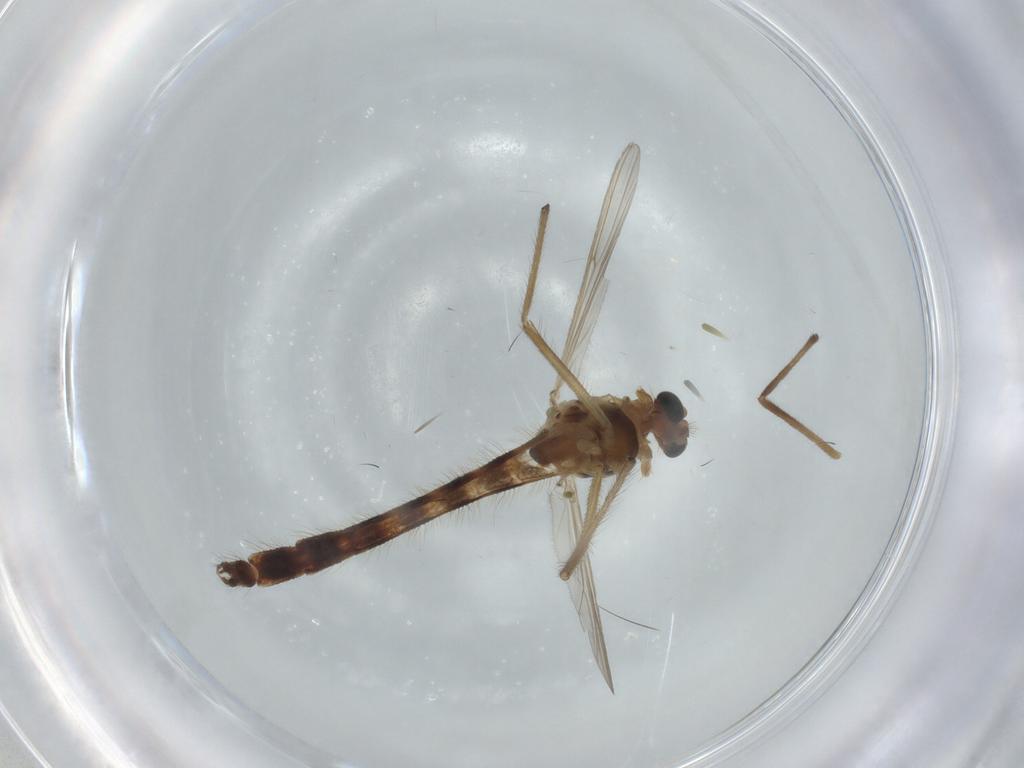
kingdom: Animalia
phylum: Arthropoda
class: Insecta
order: Diptera
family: Chironomidae
